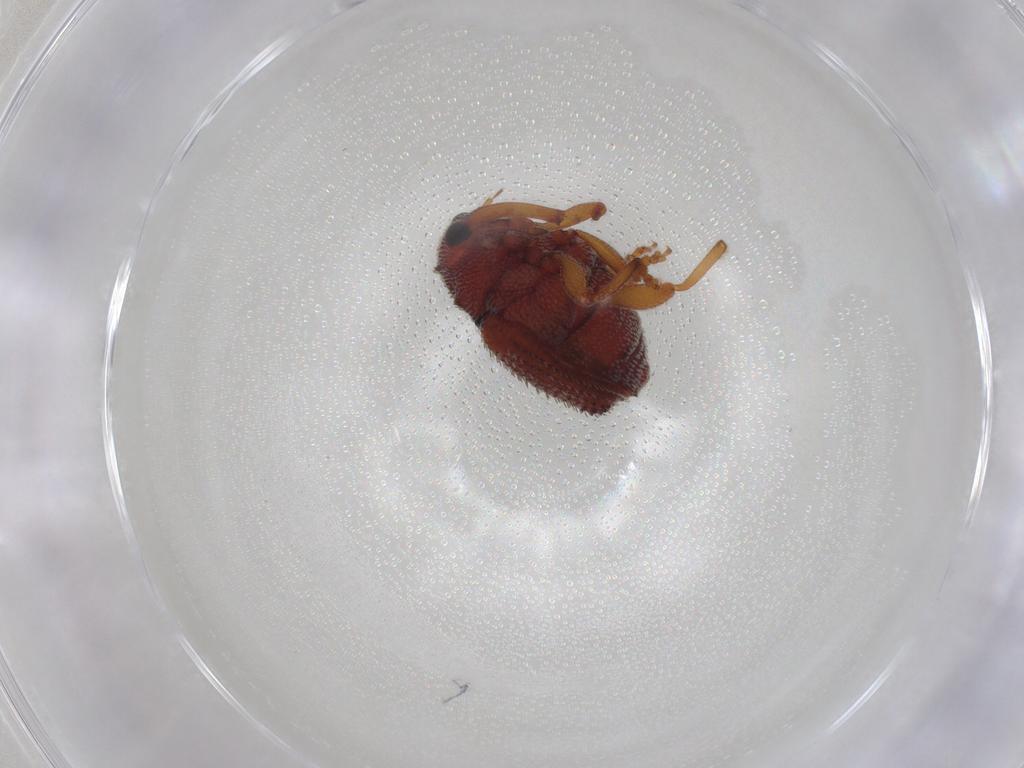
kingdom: Animalia
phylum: Arthropoda
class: Insecta
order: Coleoptera
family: Curculionidae
